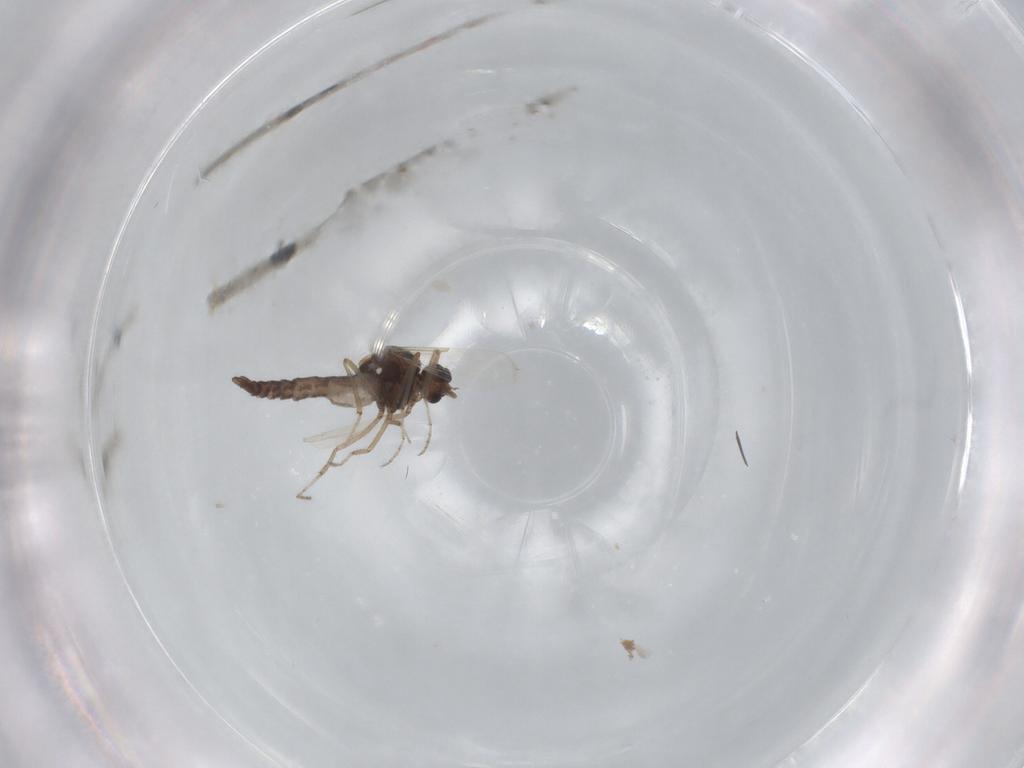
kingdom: Animalia
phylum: Arthropoda
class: Insecta
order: Diptera
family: Ceratopogonidae
